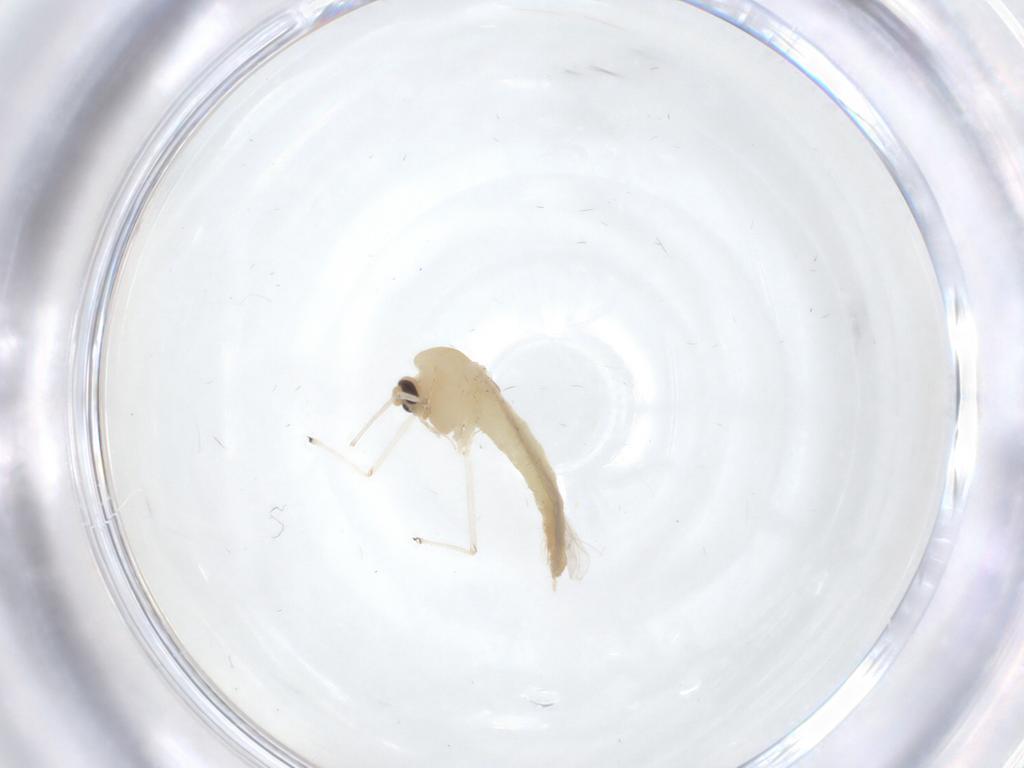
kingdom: Animalia
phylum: Arthropoda
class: Insecta
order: Diptera
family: Chironomidae
